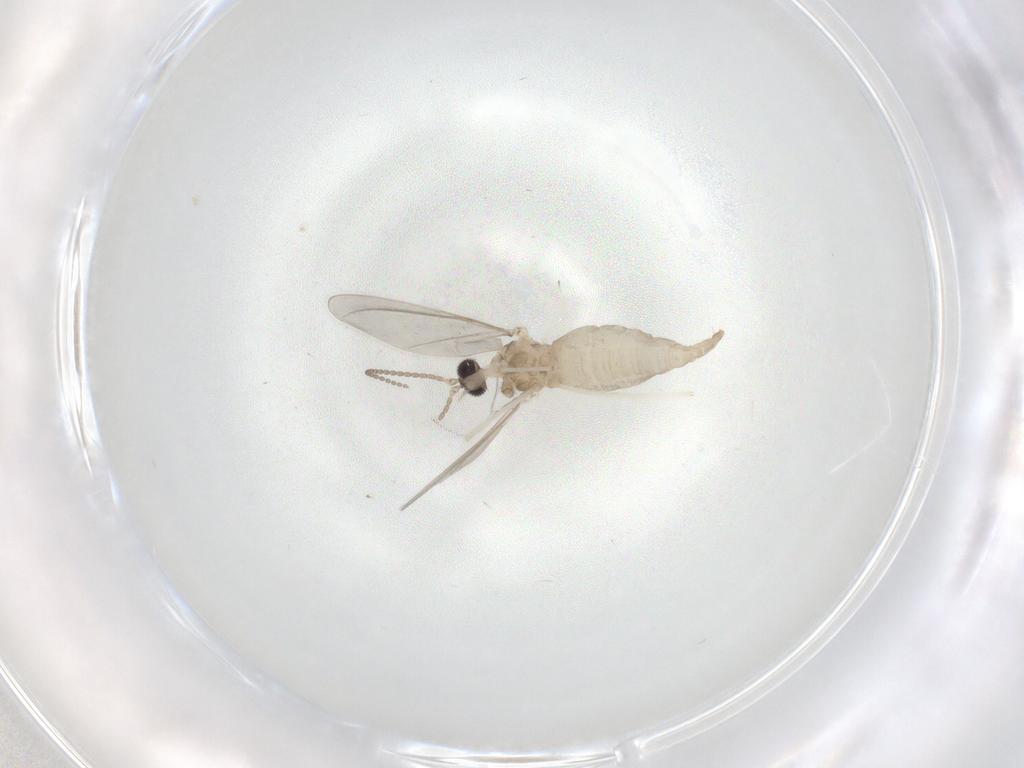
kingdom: Animalia
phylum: Arthropoda
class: Insecta
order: Diptera
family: Cecidomyiidae
